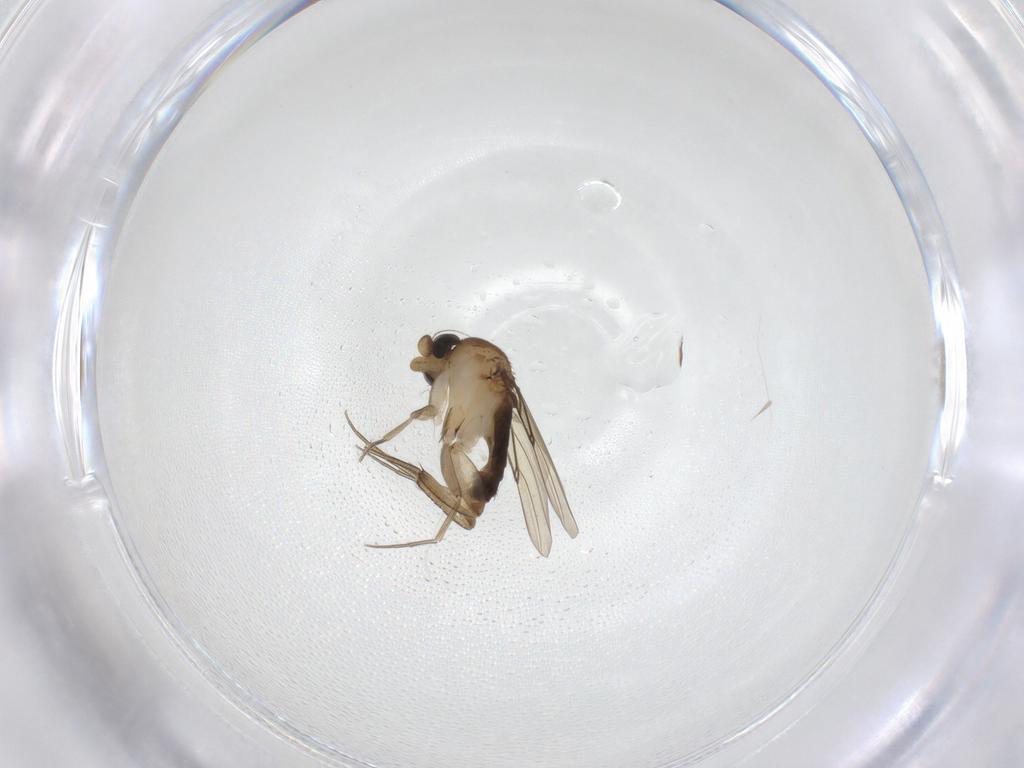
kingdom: Animalia
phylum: Arthropoda
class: Insecta
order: Diptera
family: Phoridae
